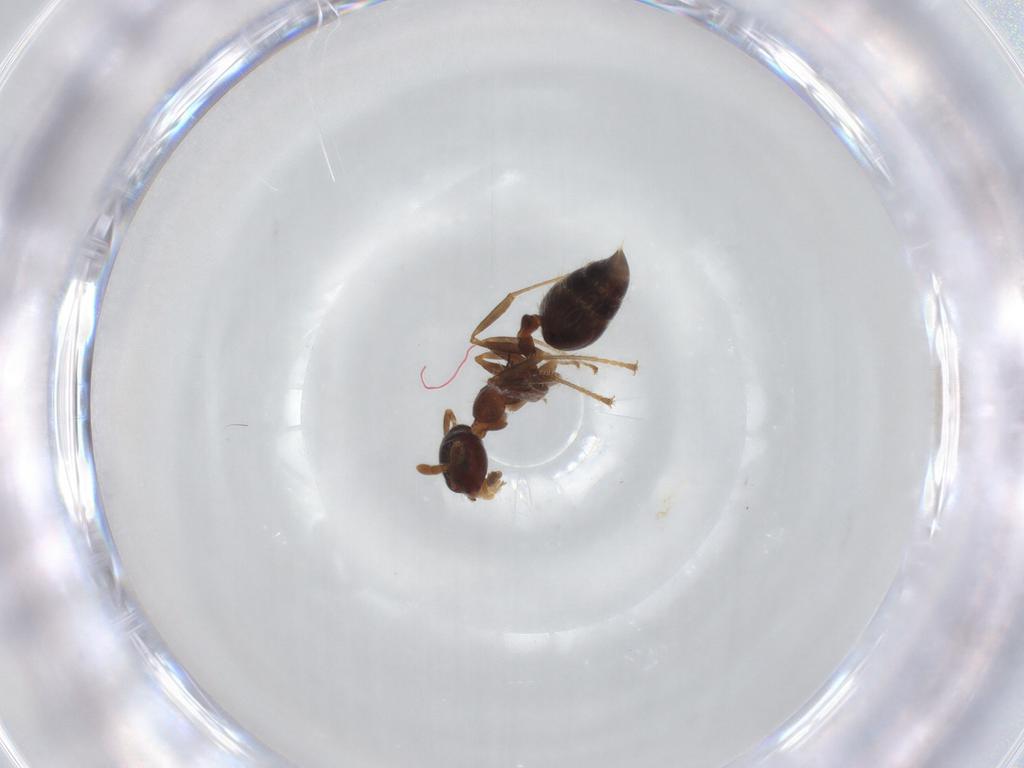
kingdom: Animalia
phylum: Arthropoda
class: Insecta
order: Hymenoptera
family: Formicidae
